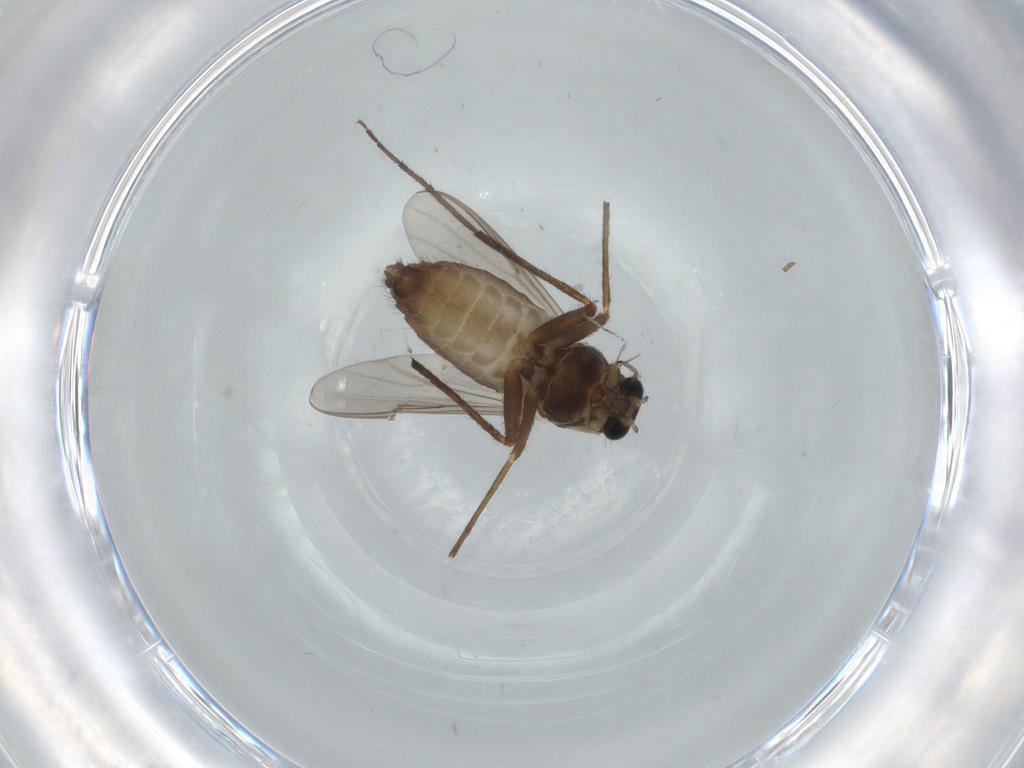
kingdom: Animalia
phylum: Arthropoda
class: Insecta
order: Diptera
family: Chironomidae
